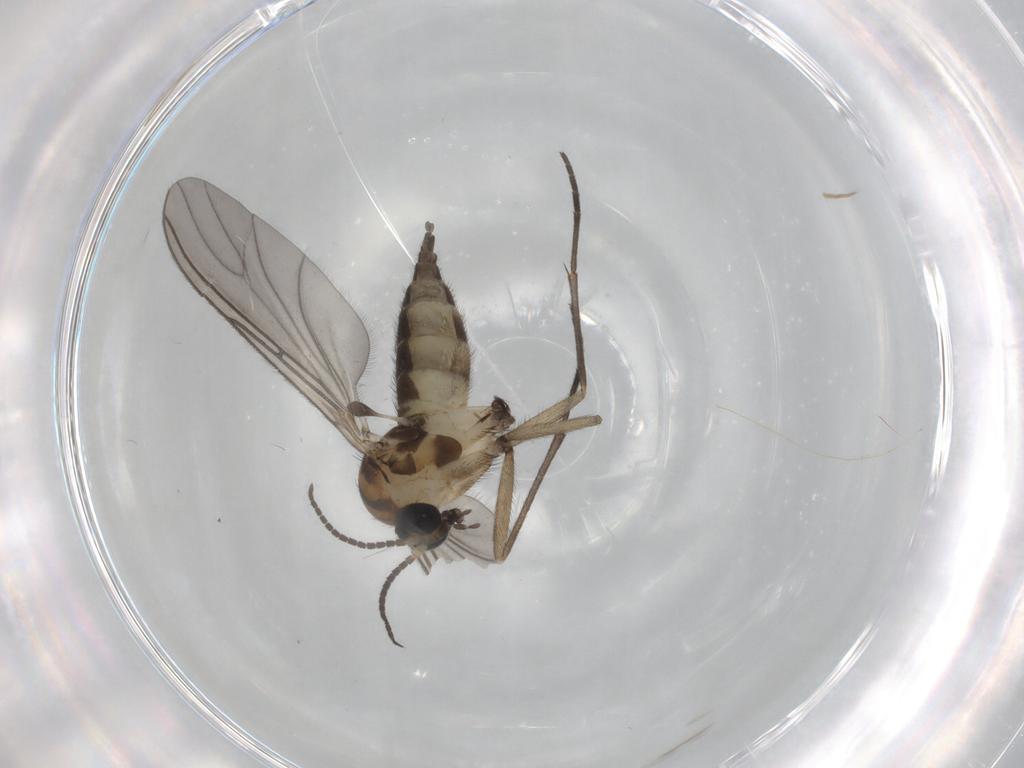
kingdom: Animalia
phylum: Arthropoda
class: Insecta
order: Diptera
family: Sciaridae
